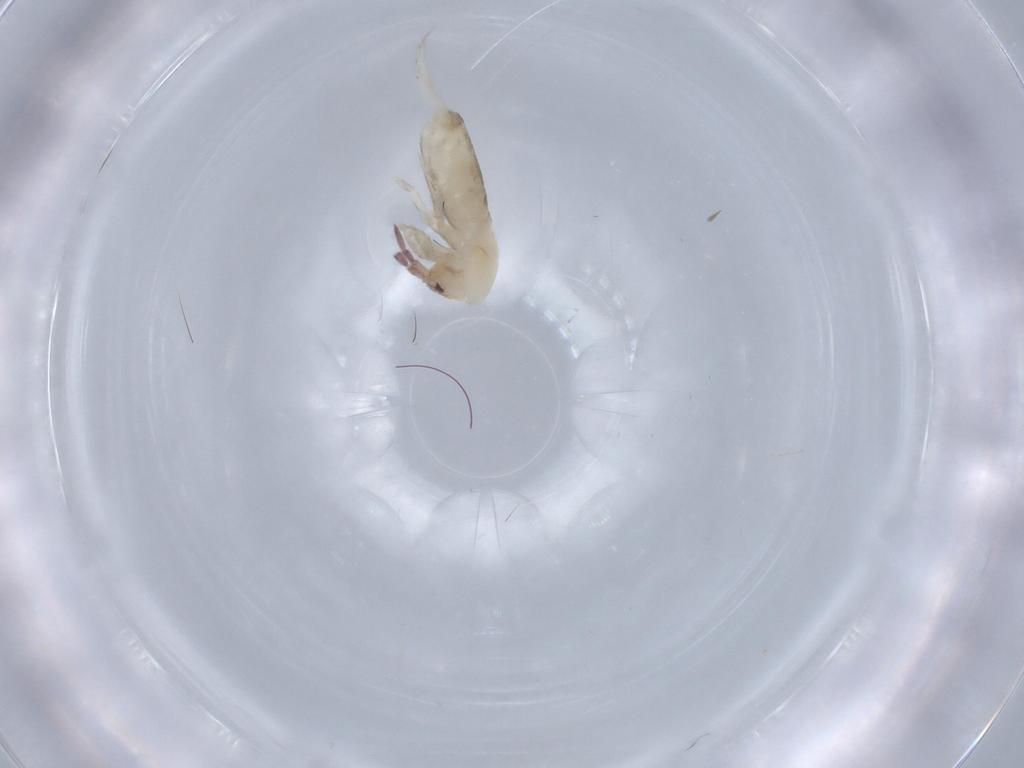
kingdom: Animalia
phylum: Arthropoda
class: Collembola
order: Entomobryomorpha
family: Entomobryidae
